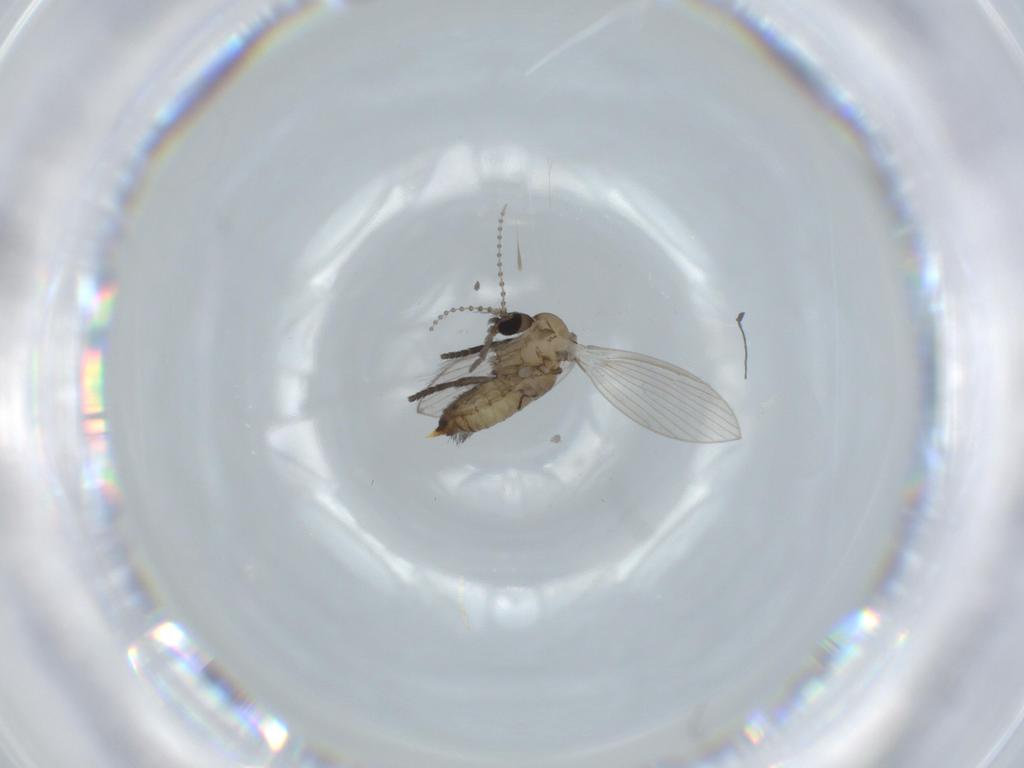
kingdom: Animalia
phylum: Arthropoda
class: Insecta
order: Diptera
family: Psychodidae
